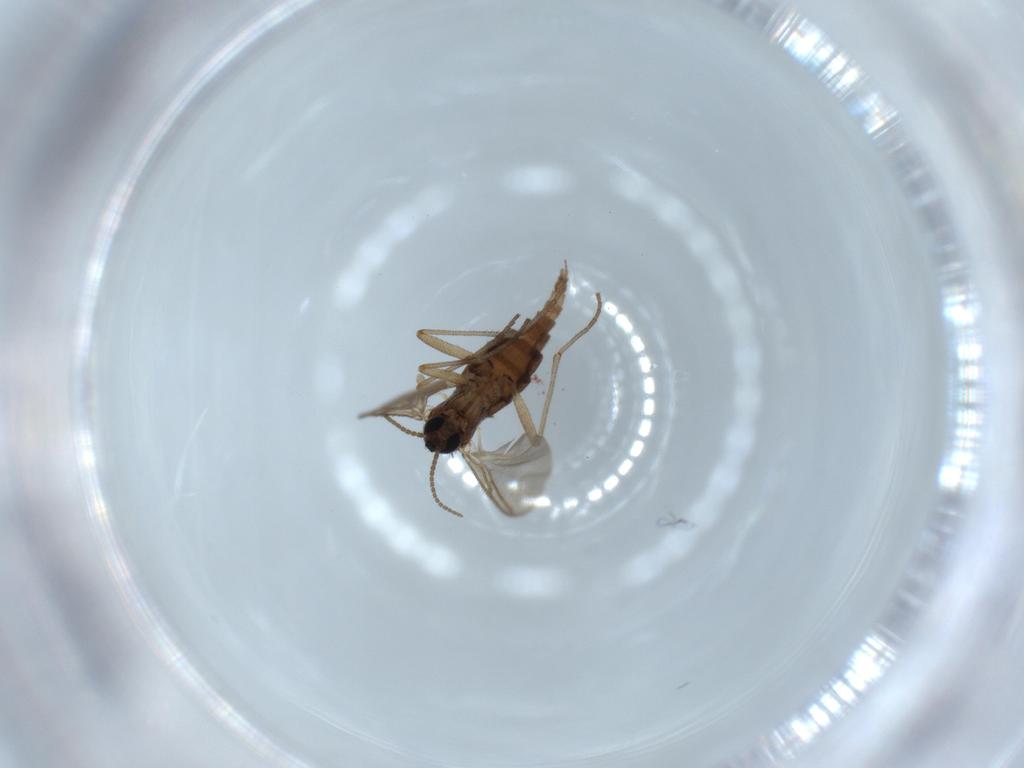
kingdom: Animalia
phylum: Arthropoda
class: Insecta
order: Diptera
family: Sciaridae
